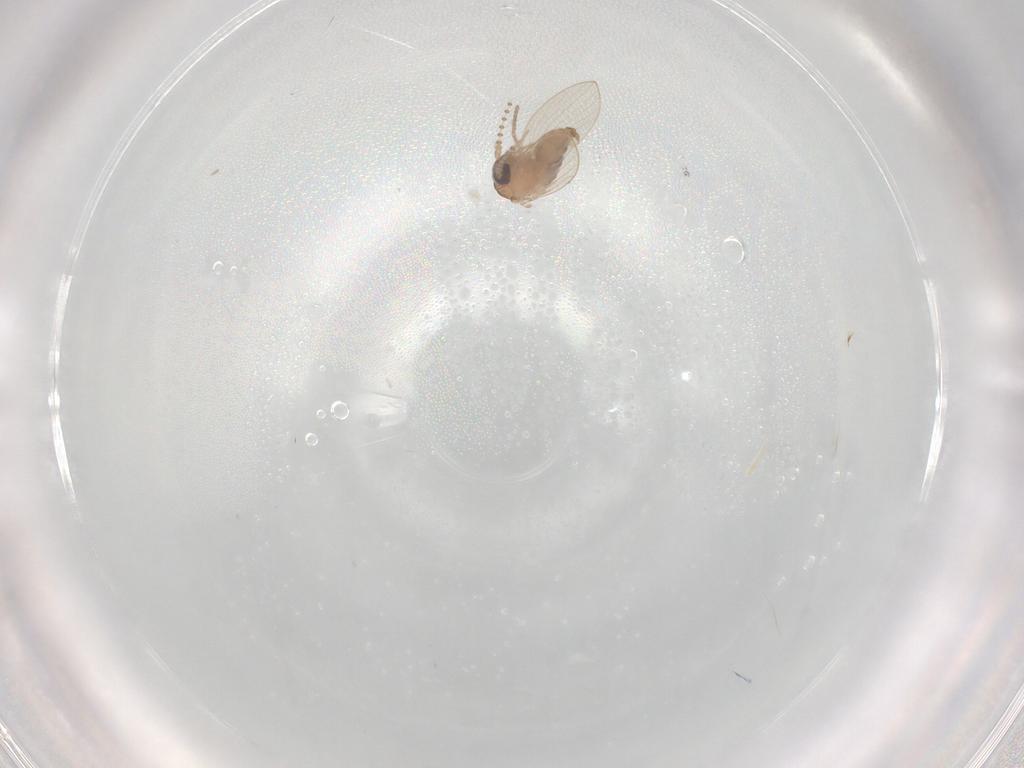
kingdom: Animalia
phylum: Arthropoda
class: Insecta
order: Diptera
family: Psychodidae
